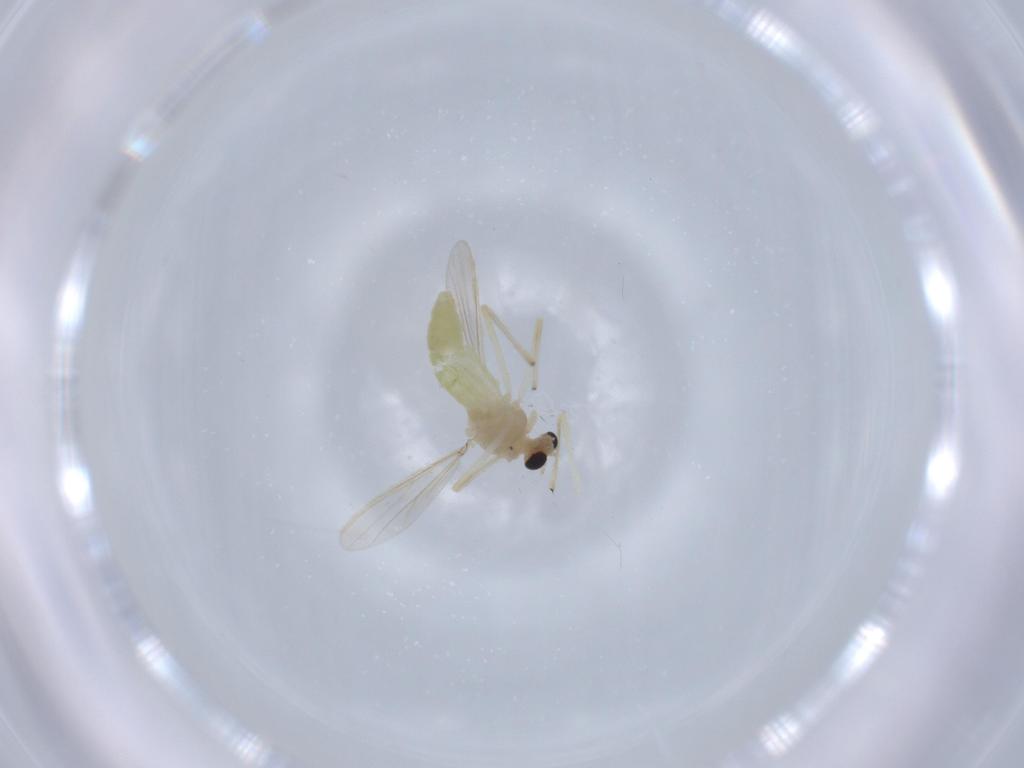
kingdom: Animalia
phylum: Arthropoda
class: Insecta
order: Diptera
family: Chironomidae
